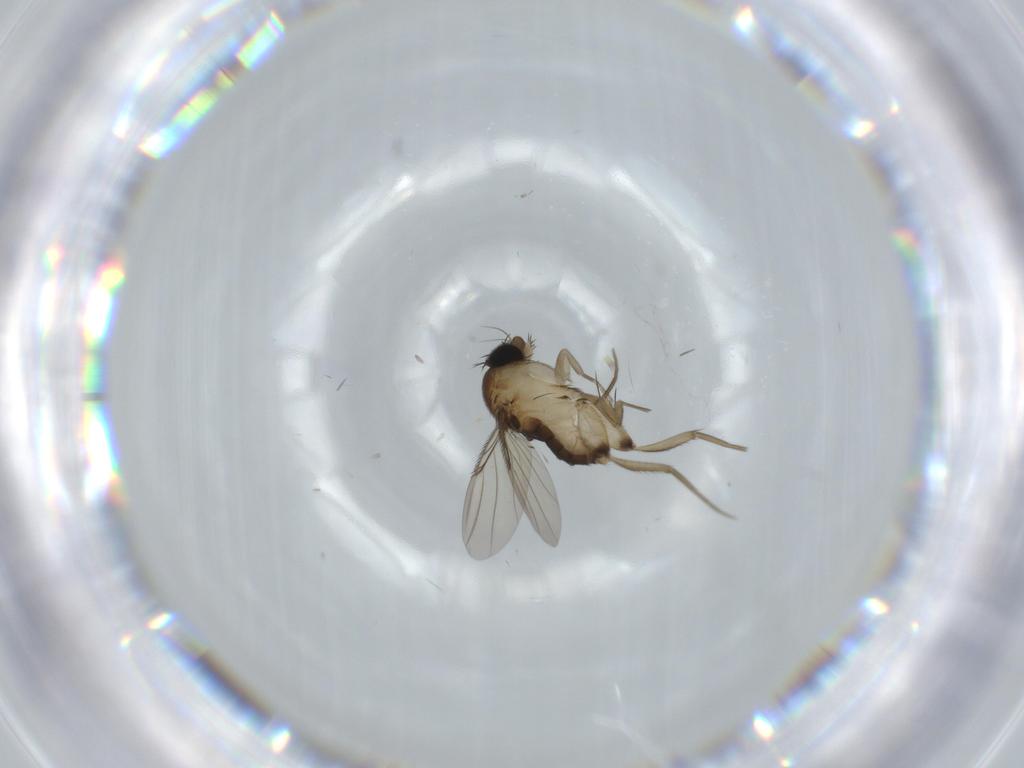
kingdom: Animalia
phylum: Arthropoda
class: Insecta
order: Diptera
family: Phoridae
